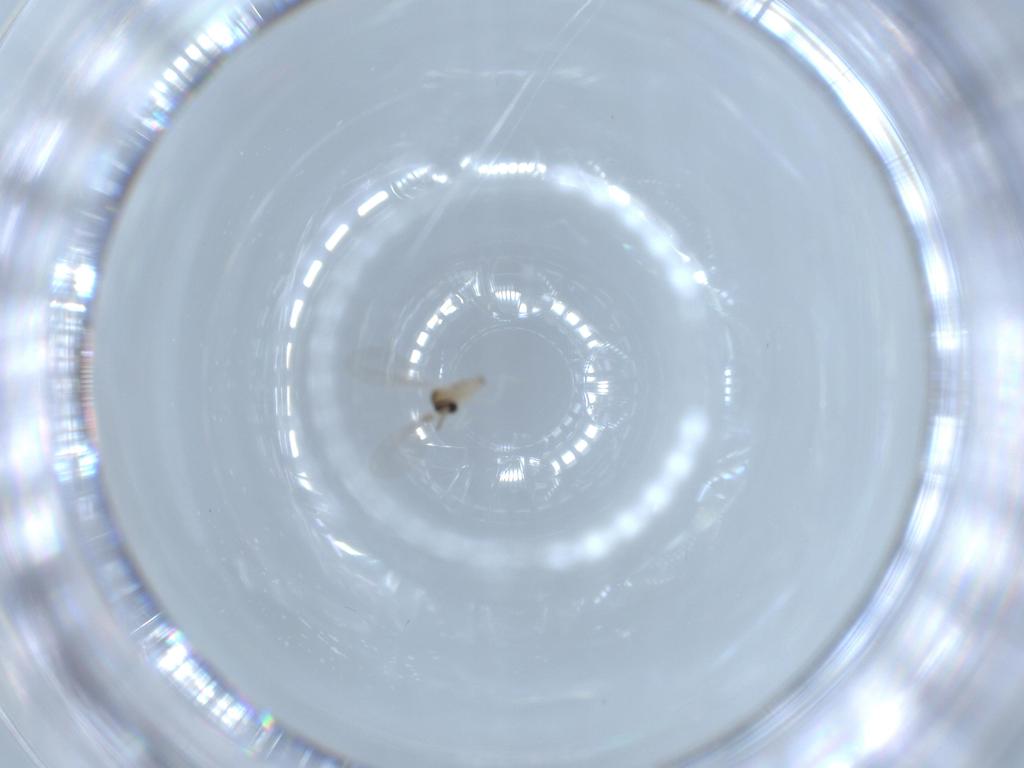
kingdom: Animalia
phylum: Arthropoda
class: Insecta
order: Diptera
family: Cecidomyiidae
